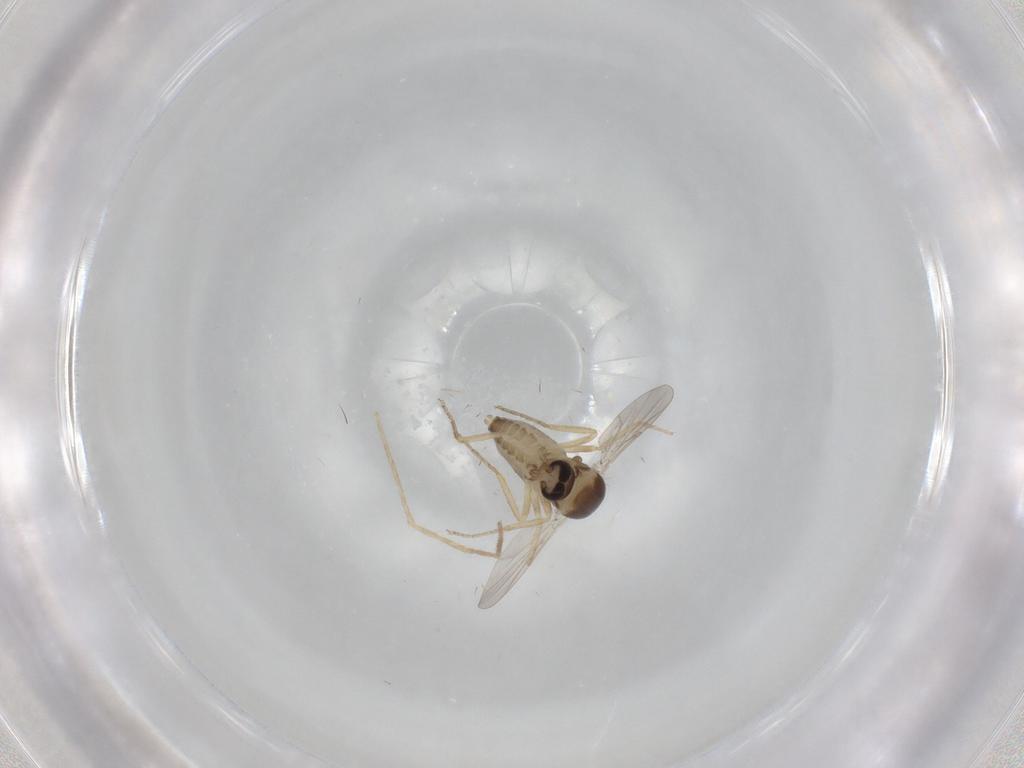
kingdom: Animalia
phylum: Arthropoda
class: Insecta
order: Diptera
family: Ceratopogonidae
